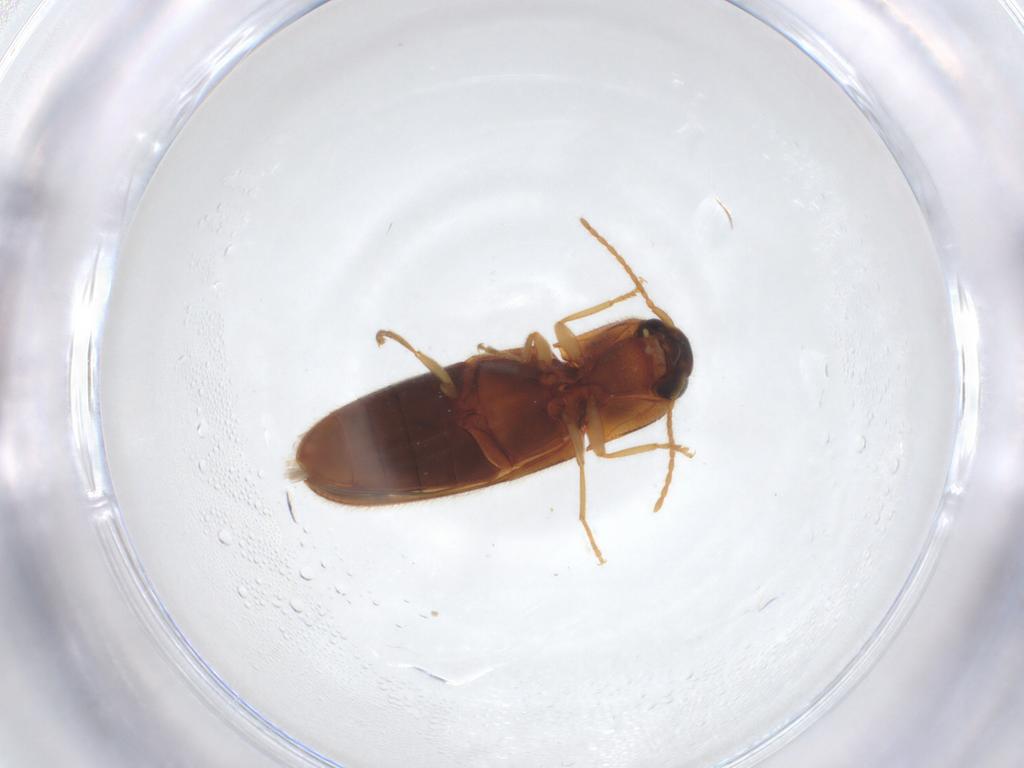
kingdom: Animalia
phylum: Arthropoda
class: Insecta
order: Coleoptera
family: Elateridae
